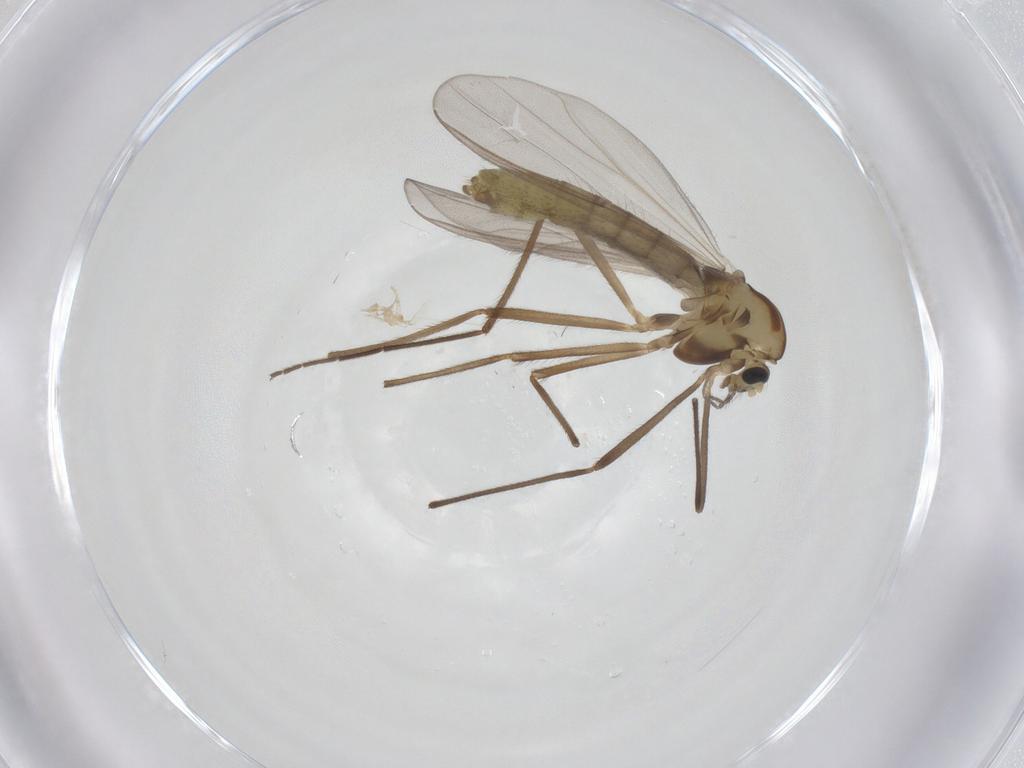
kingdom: Animalia
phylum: Arthropoda
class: Insecta
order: Diptera
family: Chironomidae
